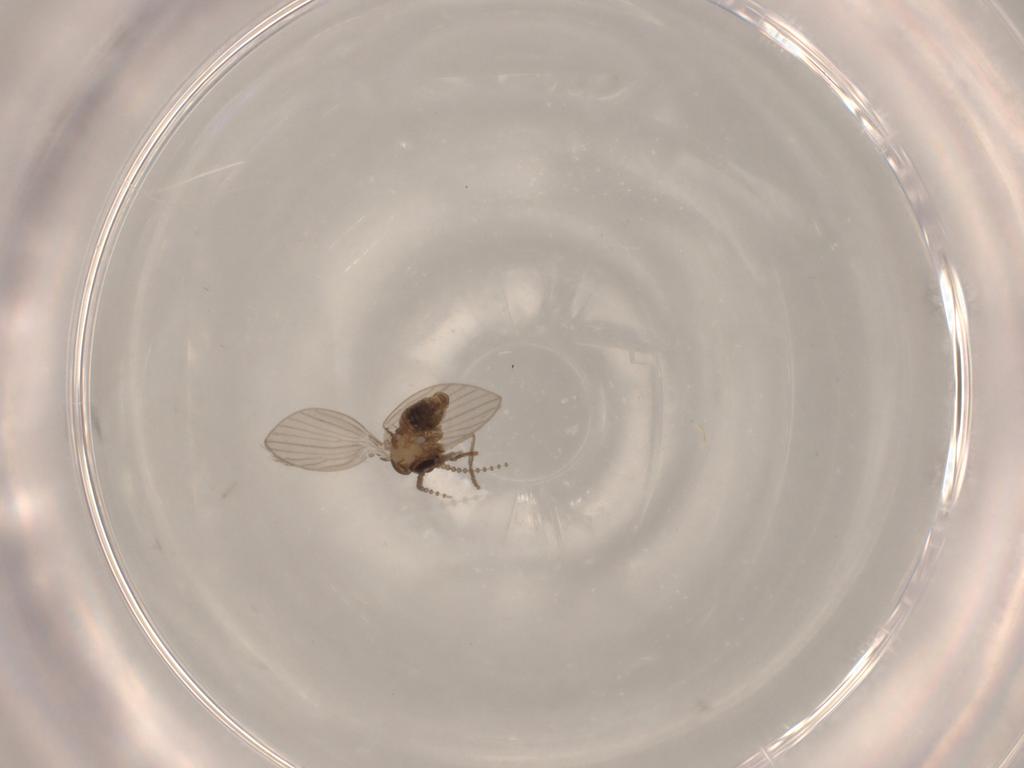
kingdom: Animalia
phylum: Arthropoda
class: Insecta
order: Diptera
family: Psychodidae
